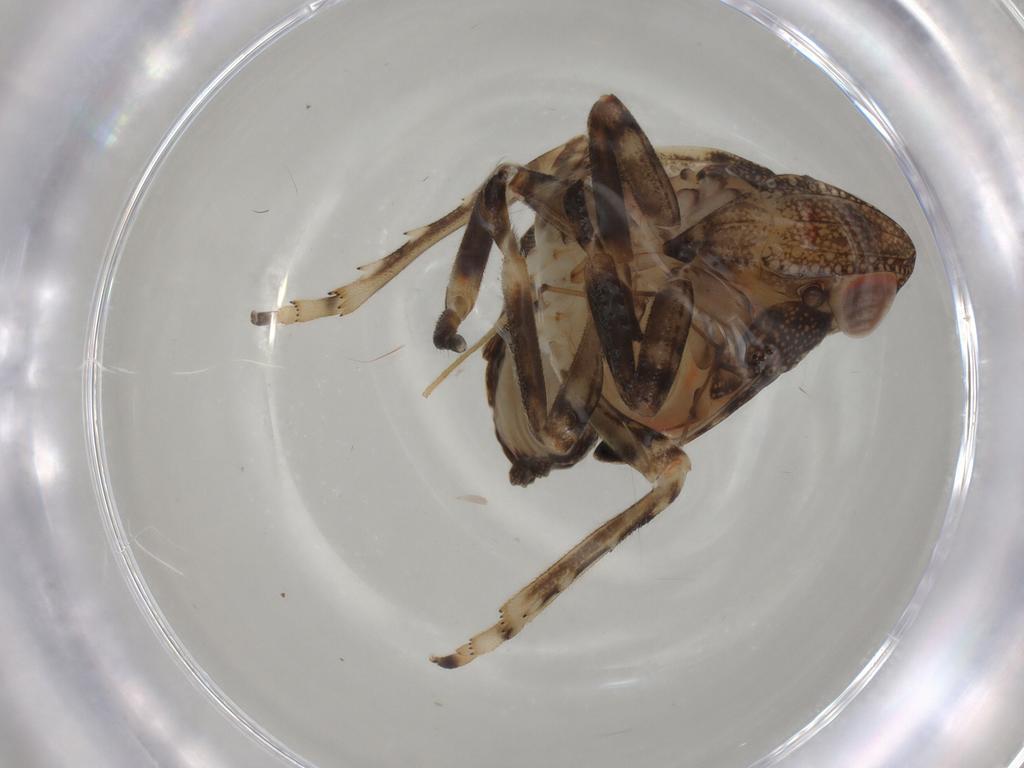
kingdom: Animalia
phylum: Arthropoda
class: Insecta
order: Hemiptera
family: Tropiduchidae
